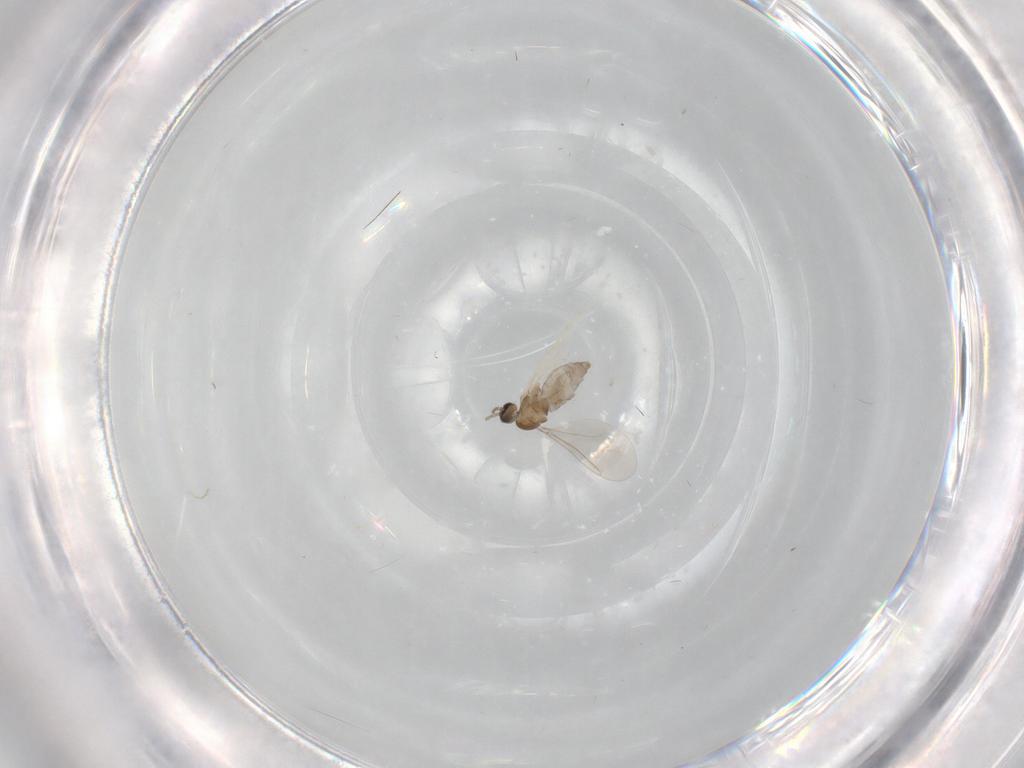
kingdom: Animalia
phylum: Arthropoda
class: Insecta
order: Diptera
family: Cecidomyiidae
